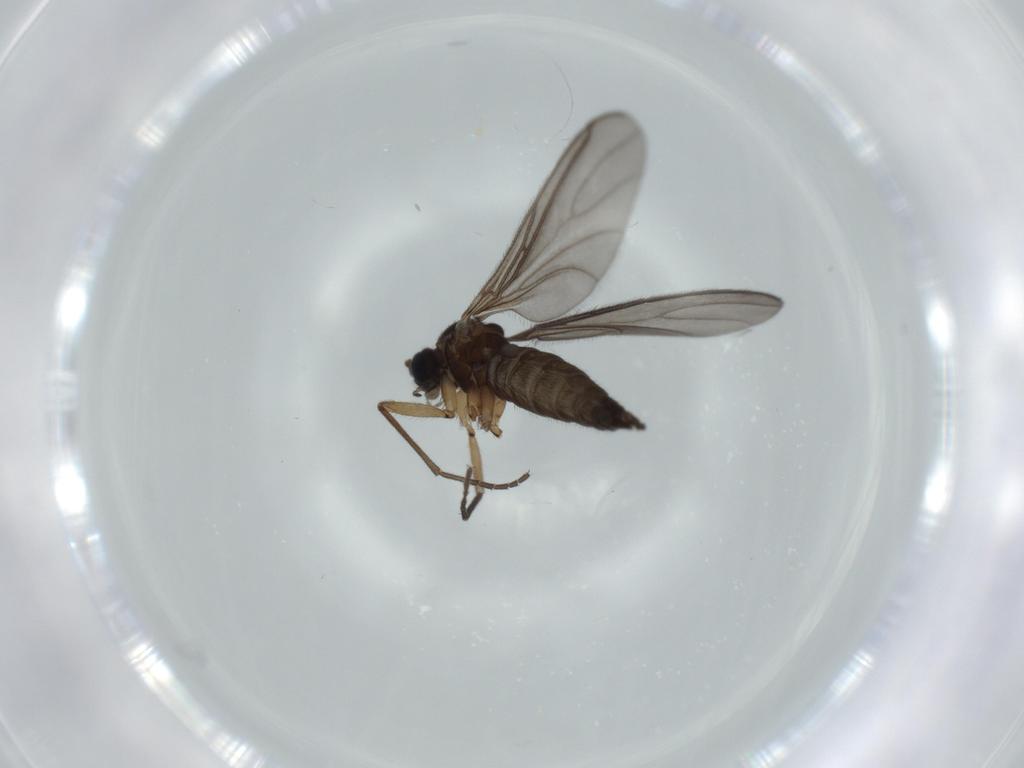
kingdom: Animalia
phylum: Arthropoda
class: Insecta
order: Diptera
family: Sciaridae
